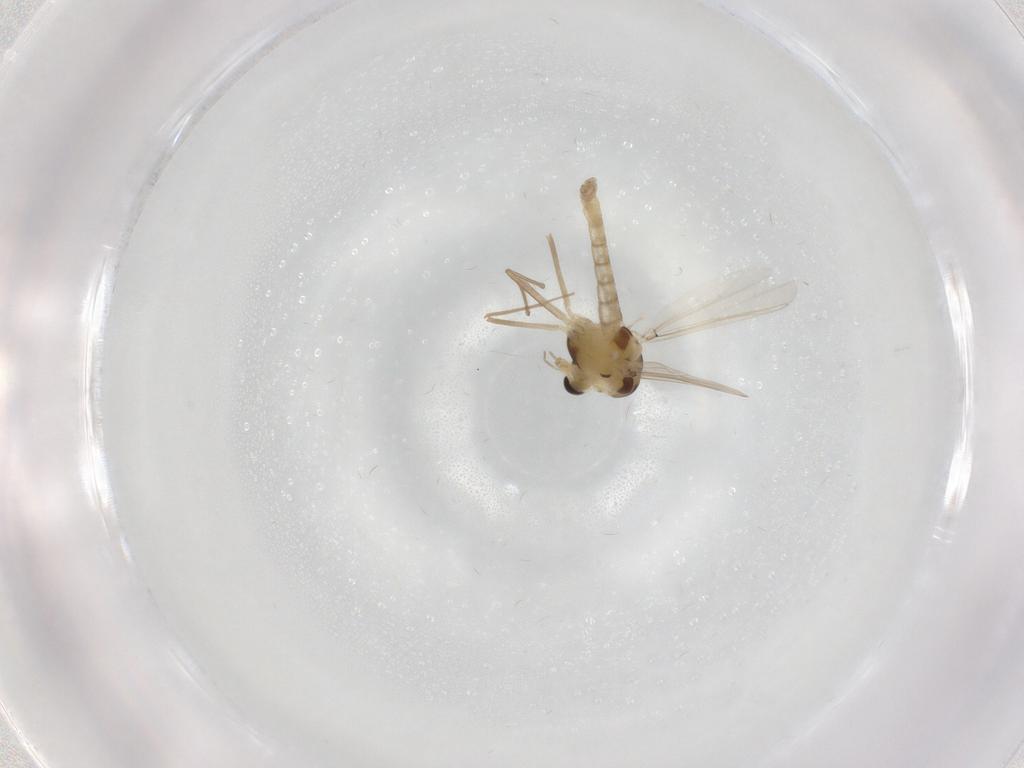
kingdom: Animalia
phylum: Arthropoda
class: Insecta
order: Diptera
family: Chironomidae
